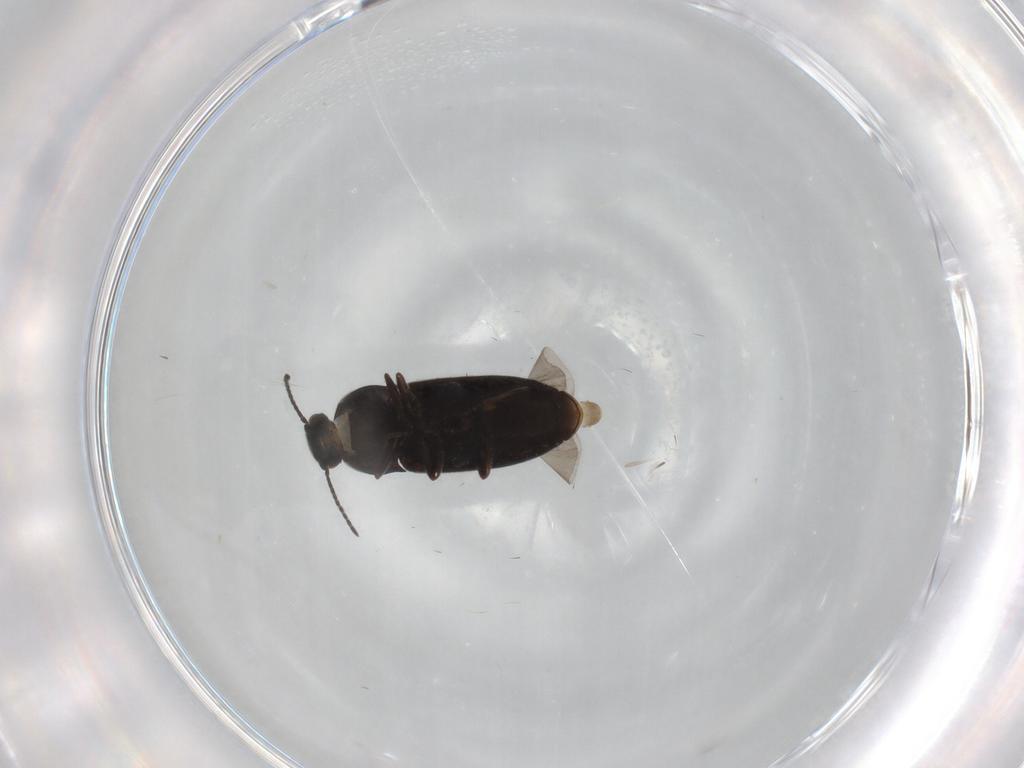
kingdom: Animalia
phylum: Arthropoda
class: Insecta
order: Coleoptera
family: Elateridae
